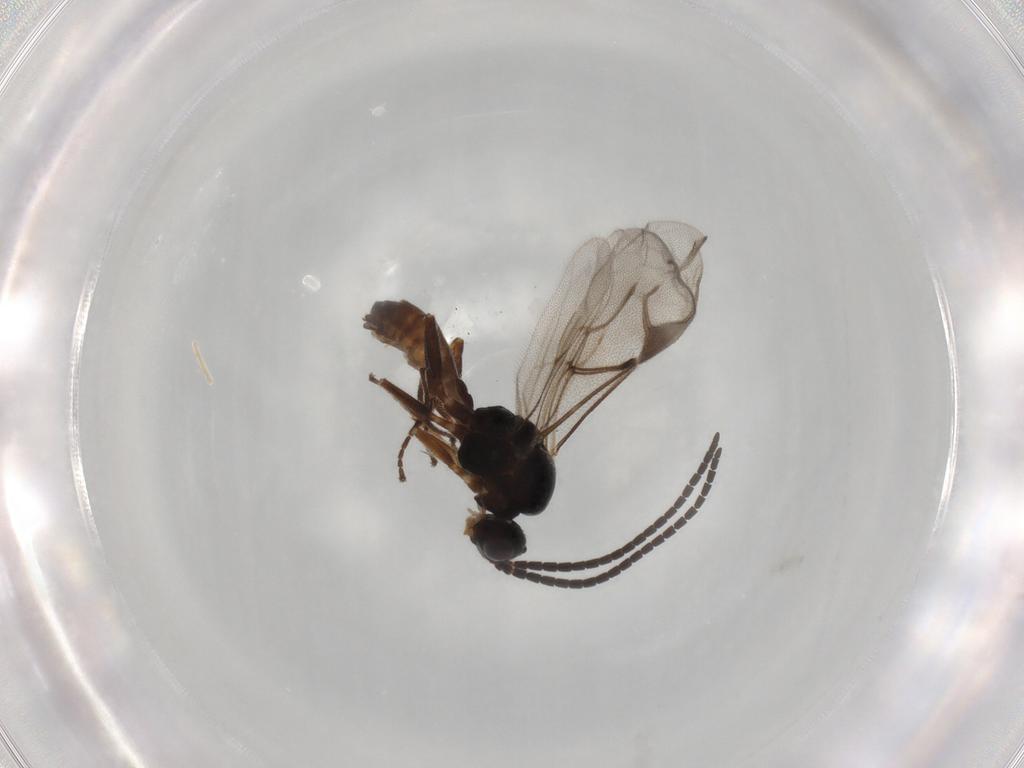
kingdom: Animalia
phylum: Arthropoda
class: Insecta
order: Hymenoptera
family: Braconidae
